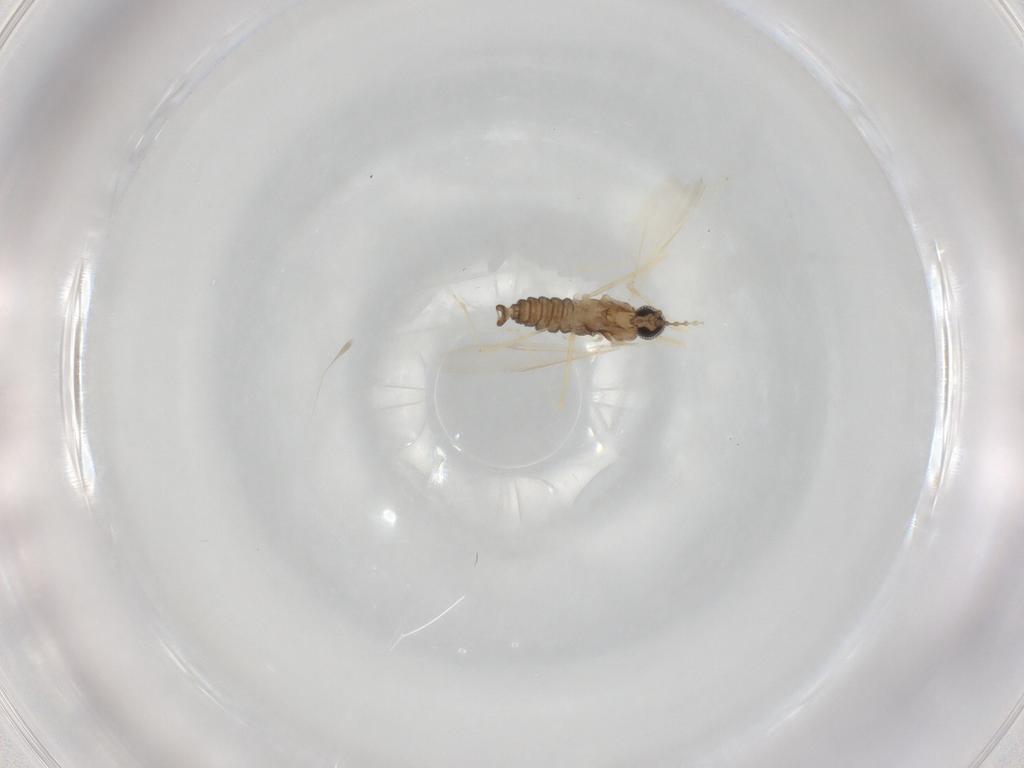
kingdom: Animalia
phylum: Arthropoda
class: Insecta
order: Diptera
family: Cecidomyiidae
